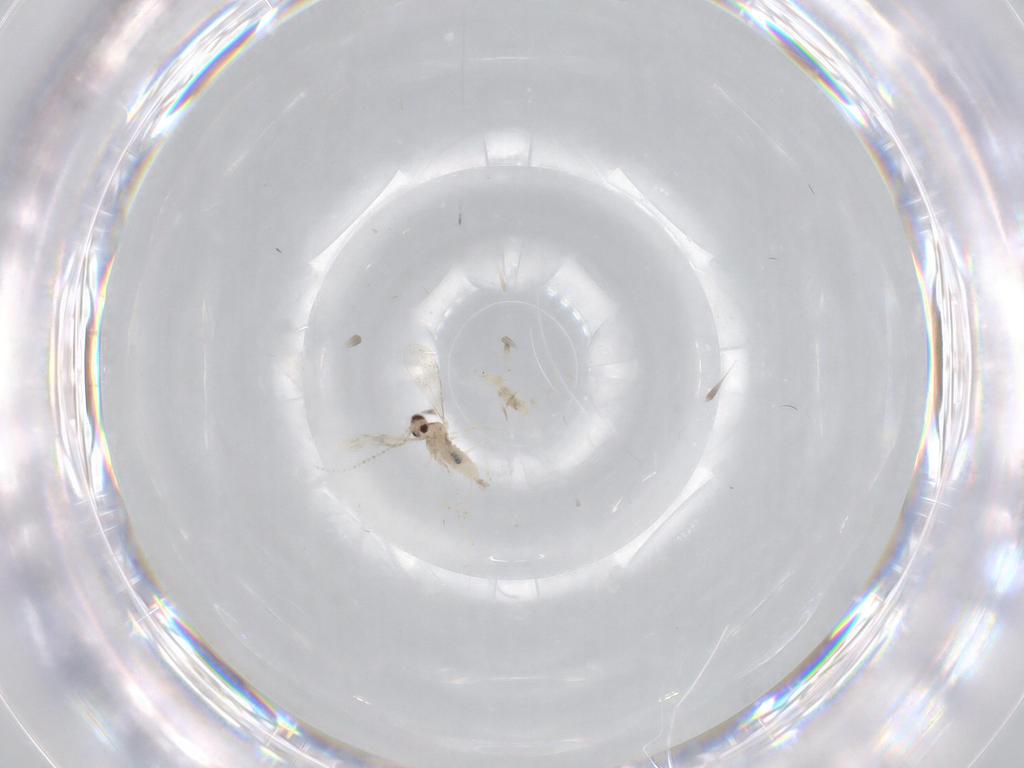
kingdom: Animalia
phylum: Arthropoda
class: Insecta
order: Diptera
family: Cecidomyiidae
